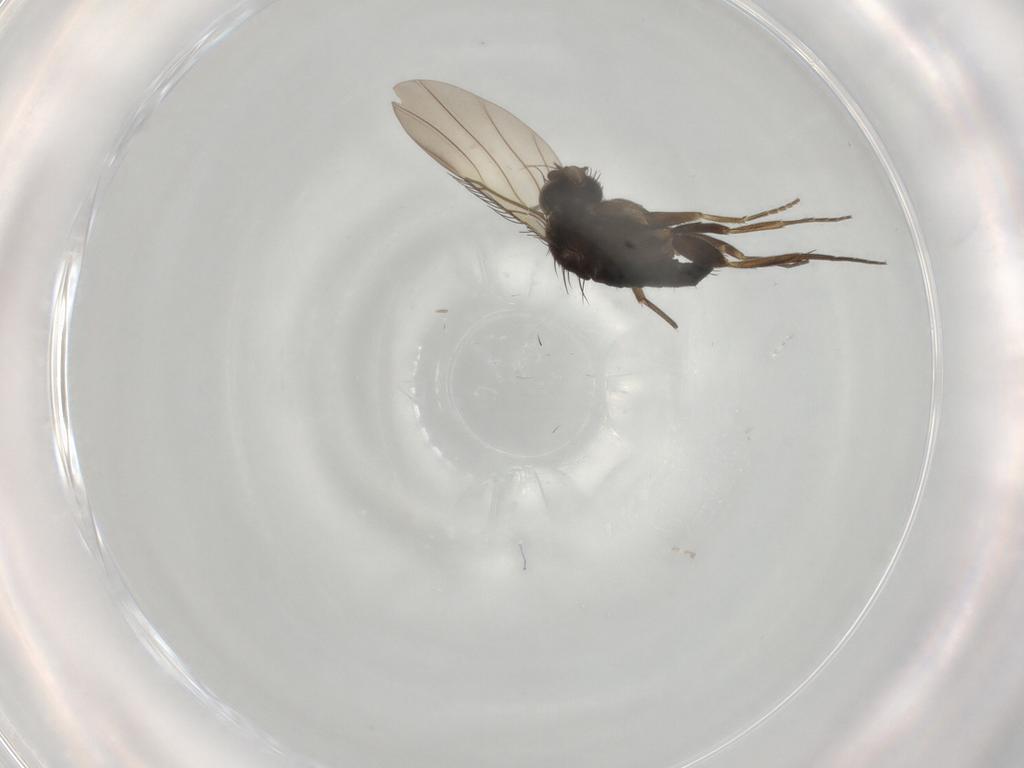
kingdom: Animalia
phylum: Arthropoda
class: Insecta
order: Diptera
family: Phoridae
